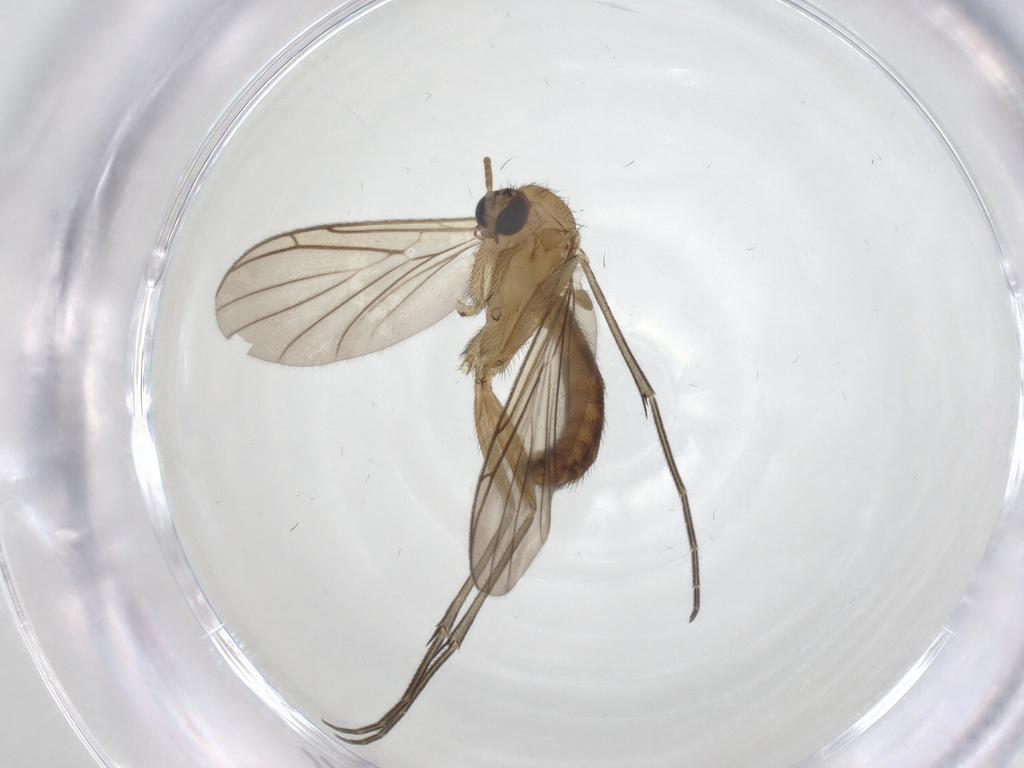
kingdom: Animalia
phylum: Arthropoda
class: Insecta
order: Diptera
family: Keroplatidae
